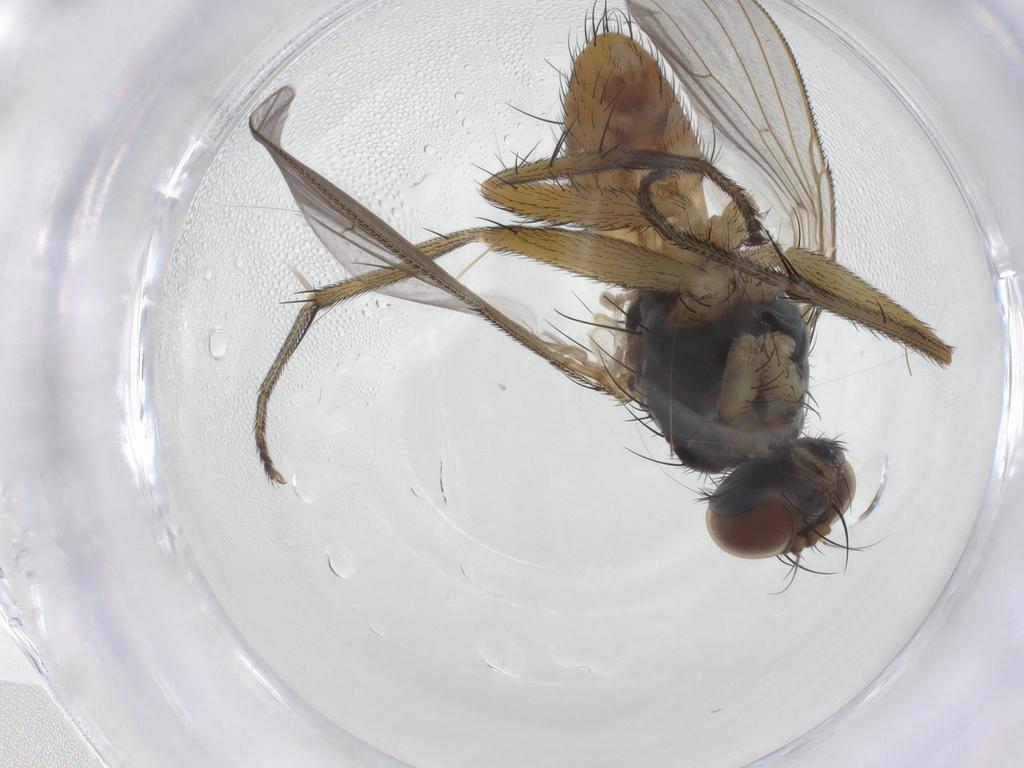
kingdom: Animalia
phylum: Arthropoda
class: Insecta
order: Diptera
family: Muscidae
